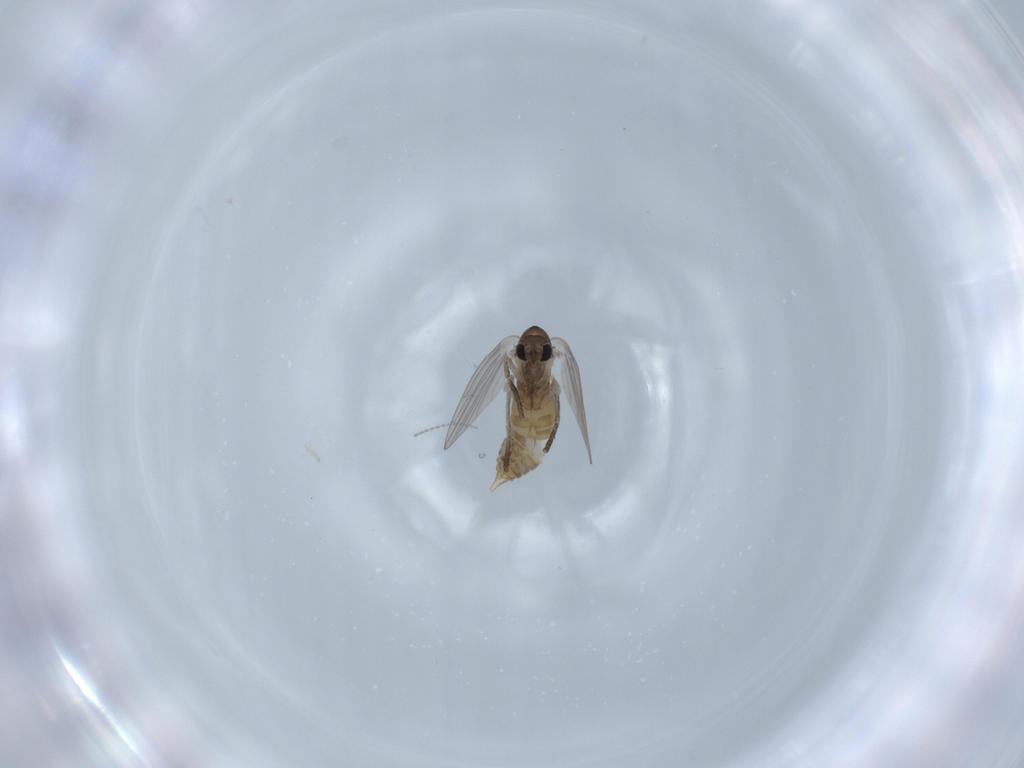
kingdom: Animalia
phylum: Arthropoda
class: Insecta
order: Diptera
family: Psychodidae
